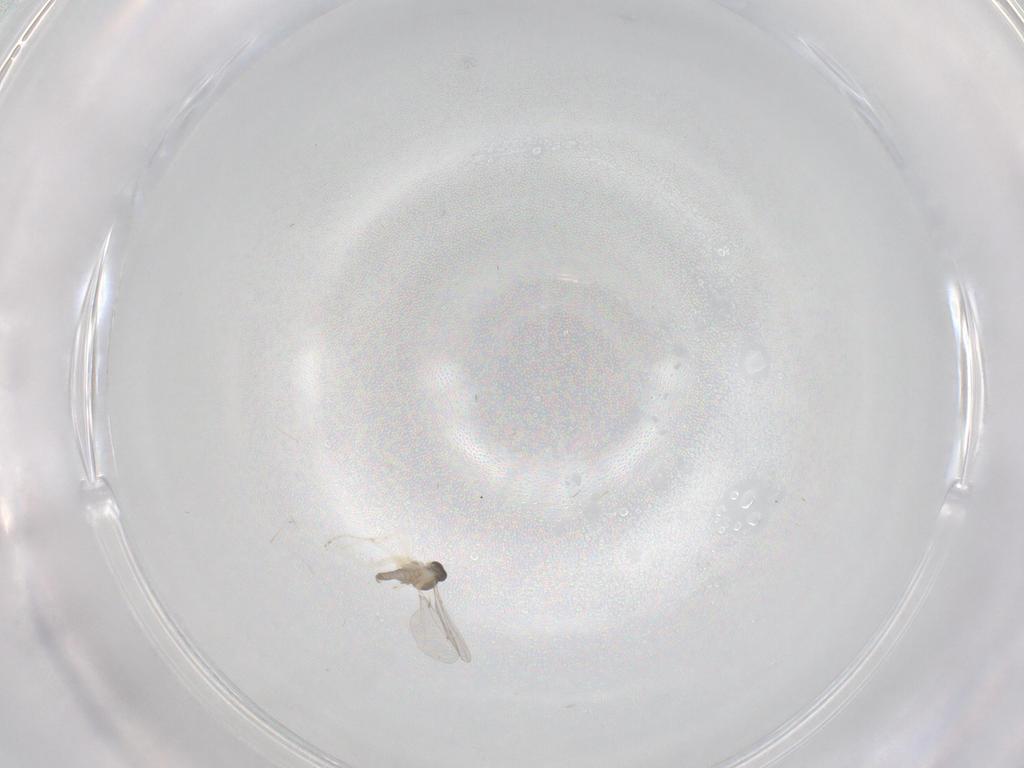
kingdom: Animalia
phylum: Arthropoda
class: Insecta
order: Diptera
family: Cecidomyiidae
